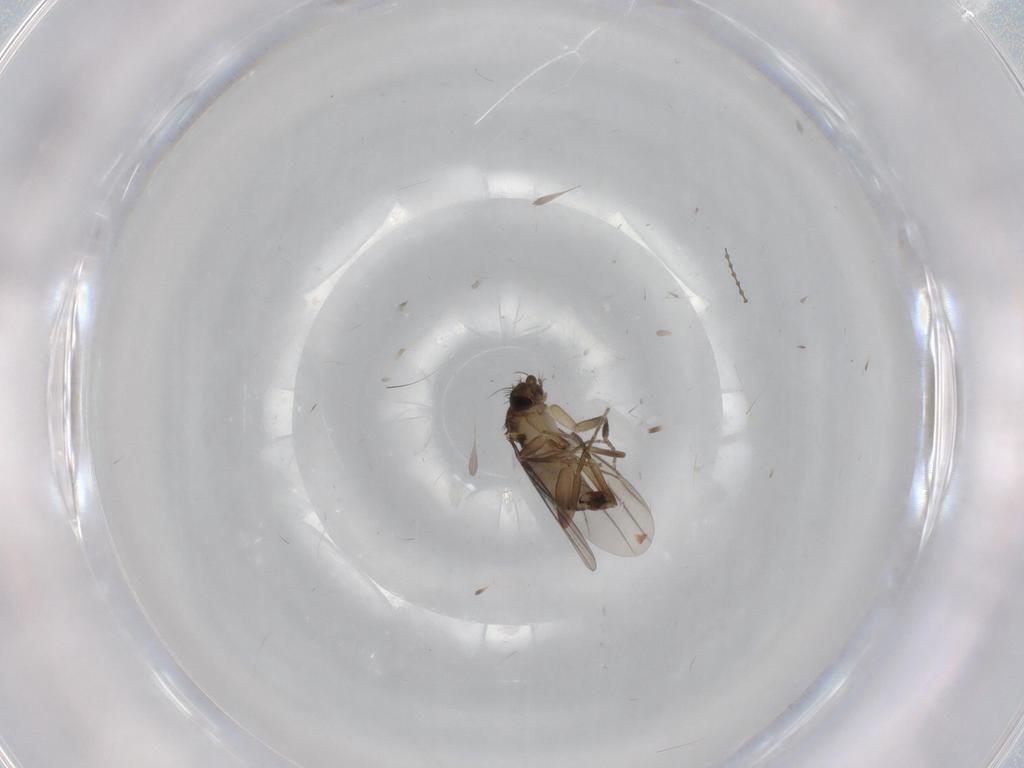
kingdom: Animalia
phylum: Arthropoda
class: Insecta
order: Diptera
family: Phoridae
